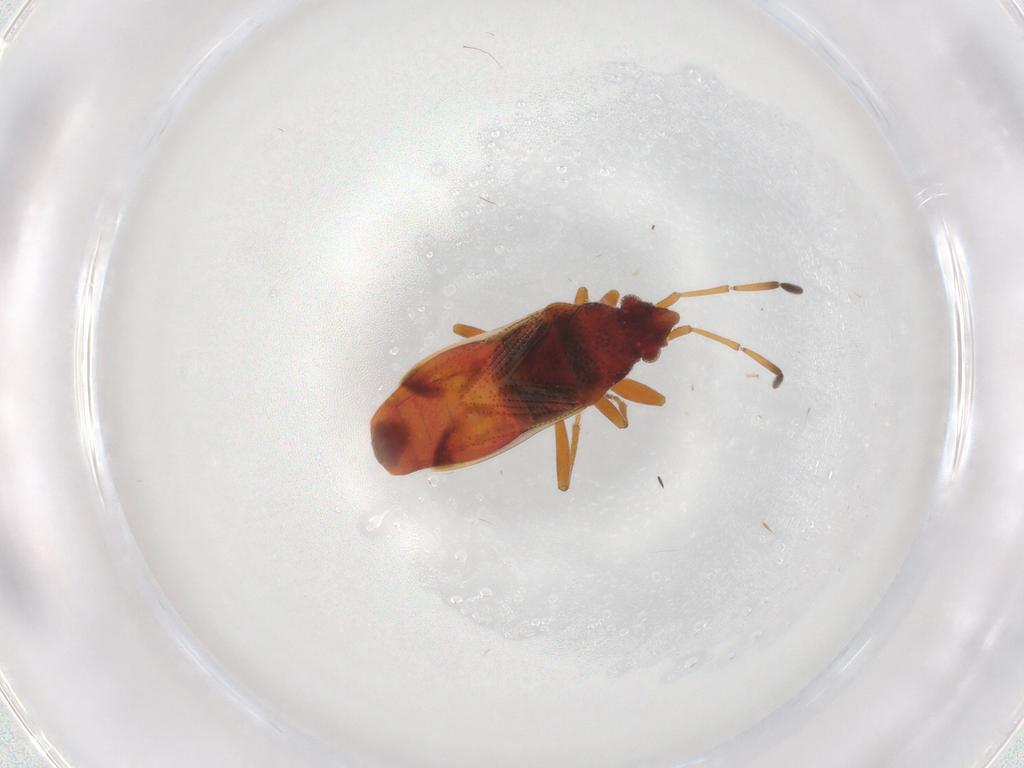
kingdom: Animalia
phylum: Arthropoda
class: Insecta
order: Hemiptera
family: Rhyparochromidae
